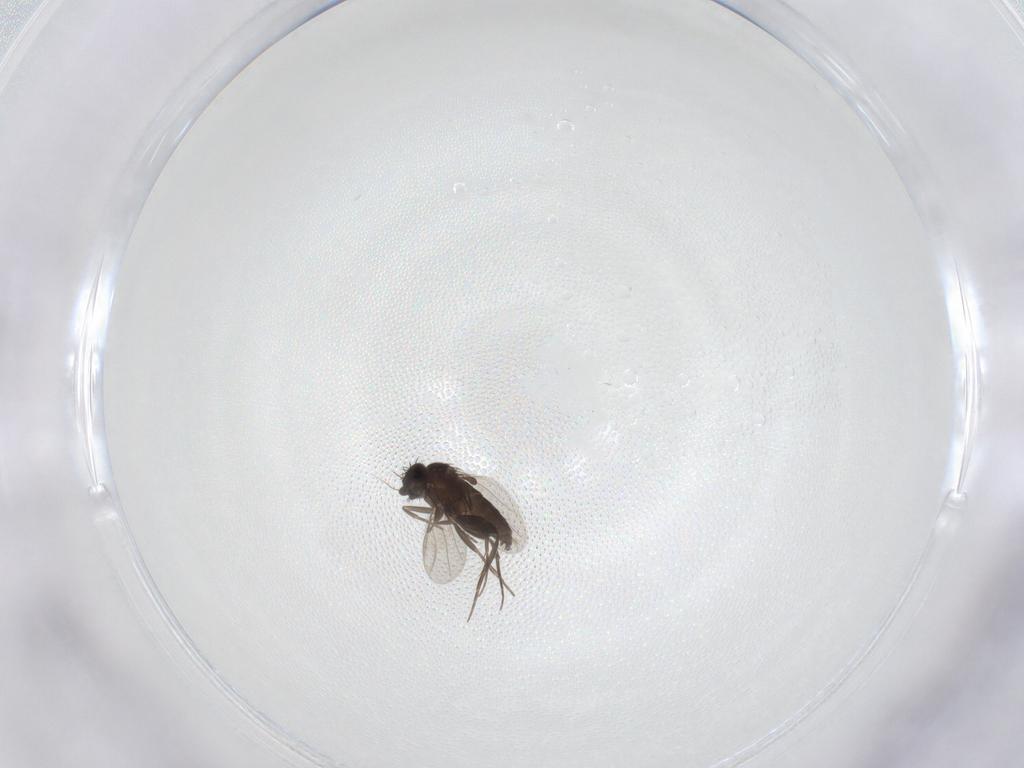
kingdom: Animalia
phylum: Arthropoda
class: Insecta
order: Diptera
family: Phoridae
